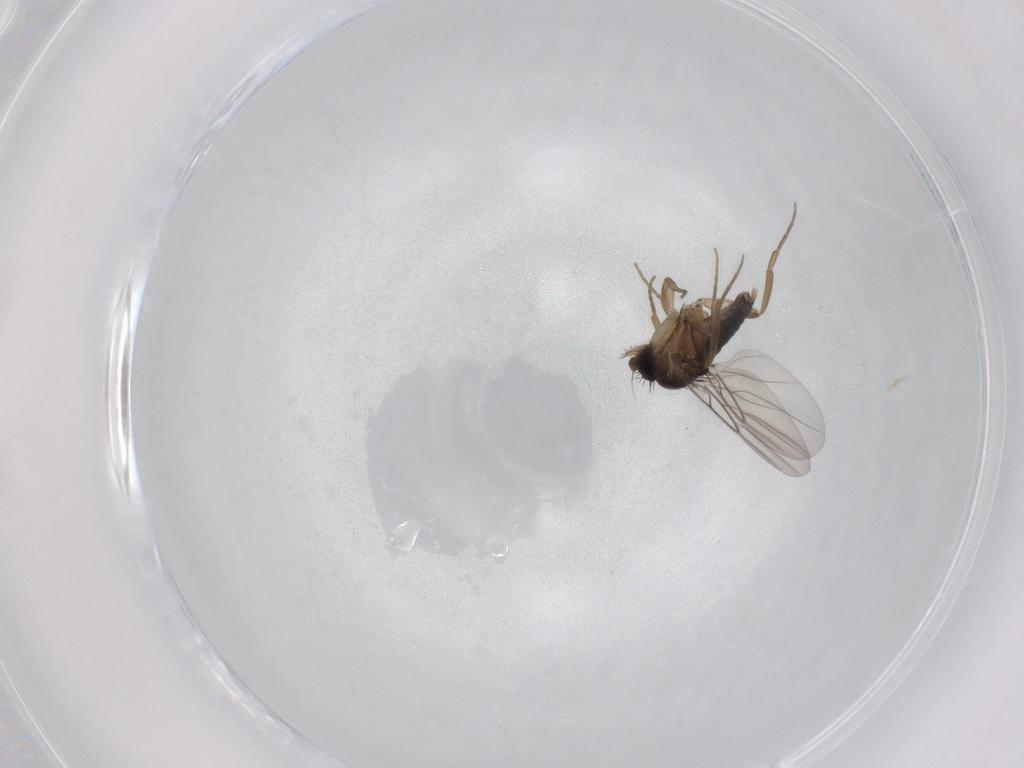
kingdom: Animalia
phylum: Arthropoda
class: Insecta
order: Diptera
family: Phoridae
